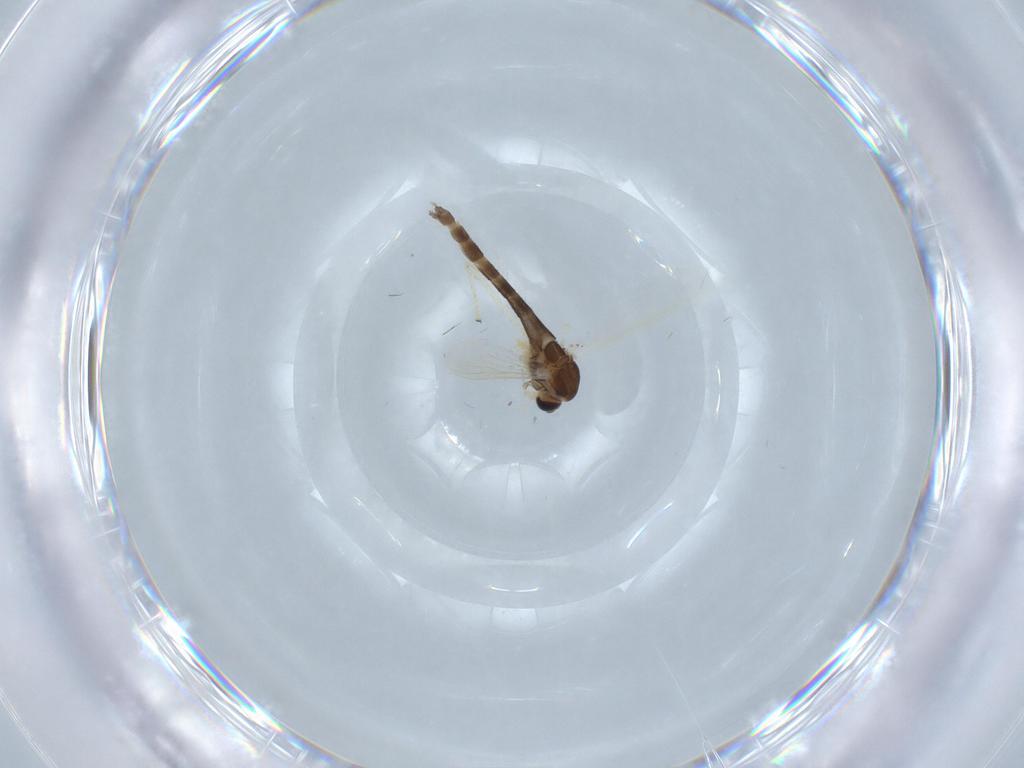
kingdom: Animalia
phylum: Arthropoda
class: Insecta
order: Diptera
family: Chironomidae
